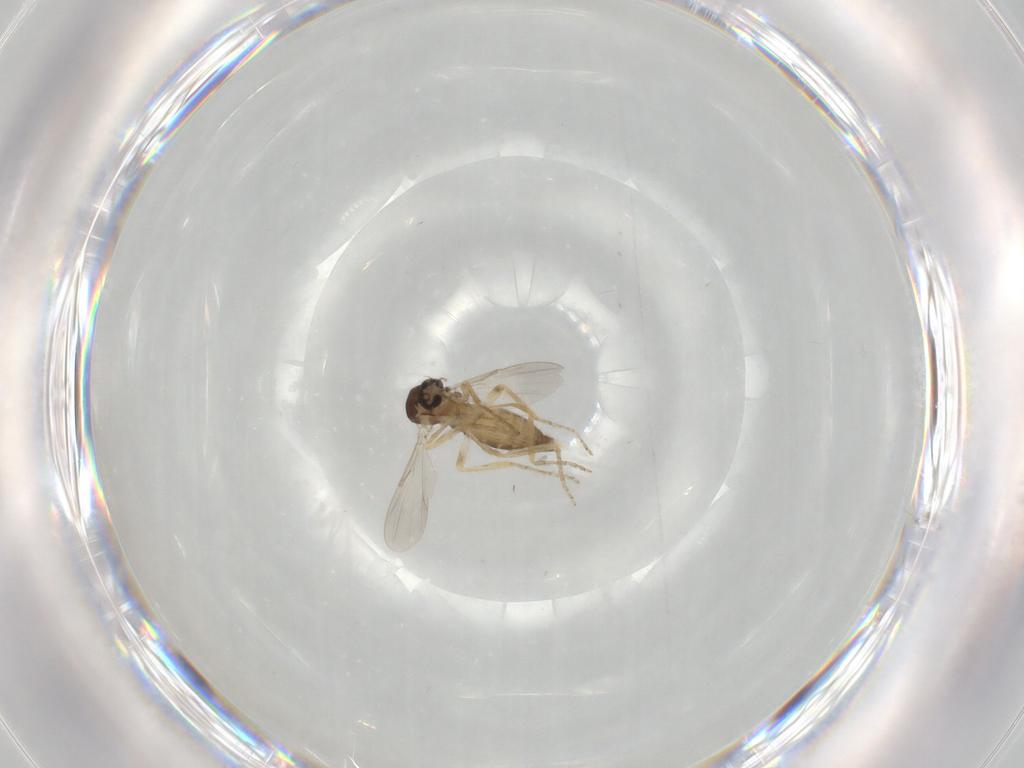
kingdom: Animalia
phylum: Arthropoda
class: Insecta
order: Diptera
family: Ceratopogonidae
